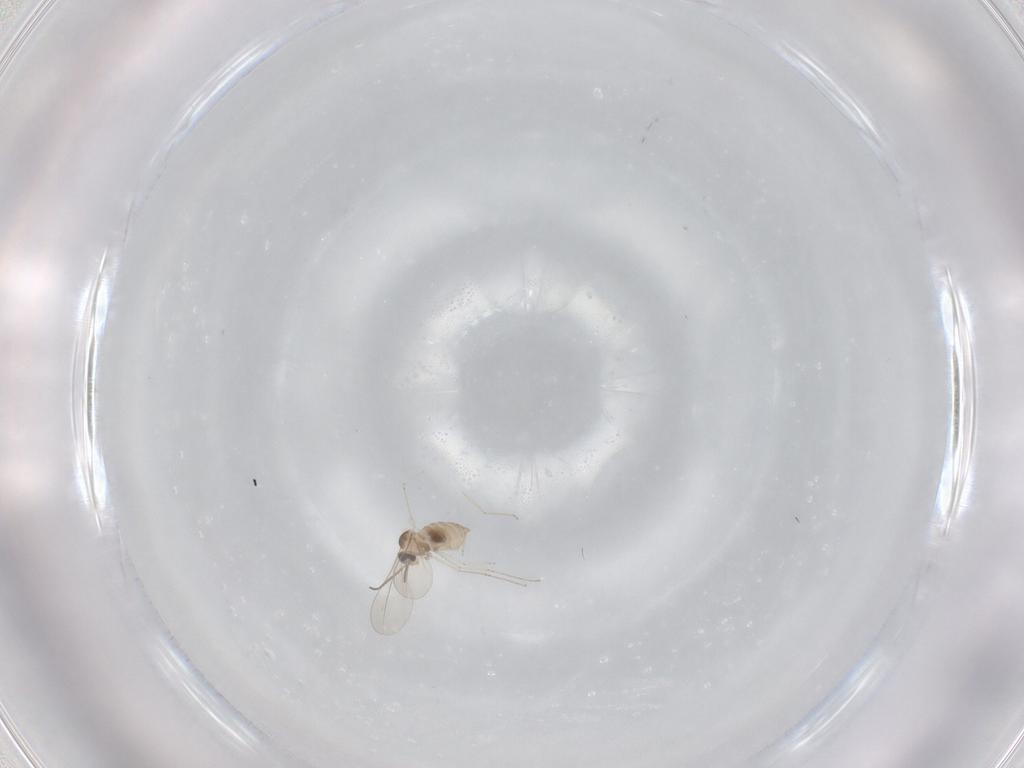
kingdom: Animalia
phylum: Arthropoda
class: Insecta
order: Diptera
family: Cecidomyiidae
